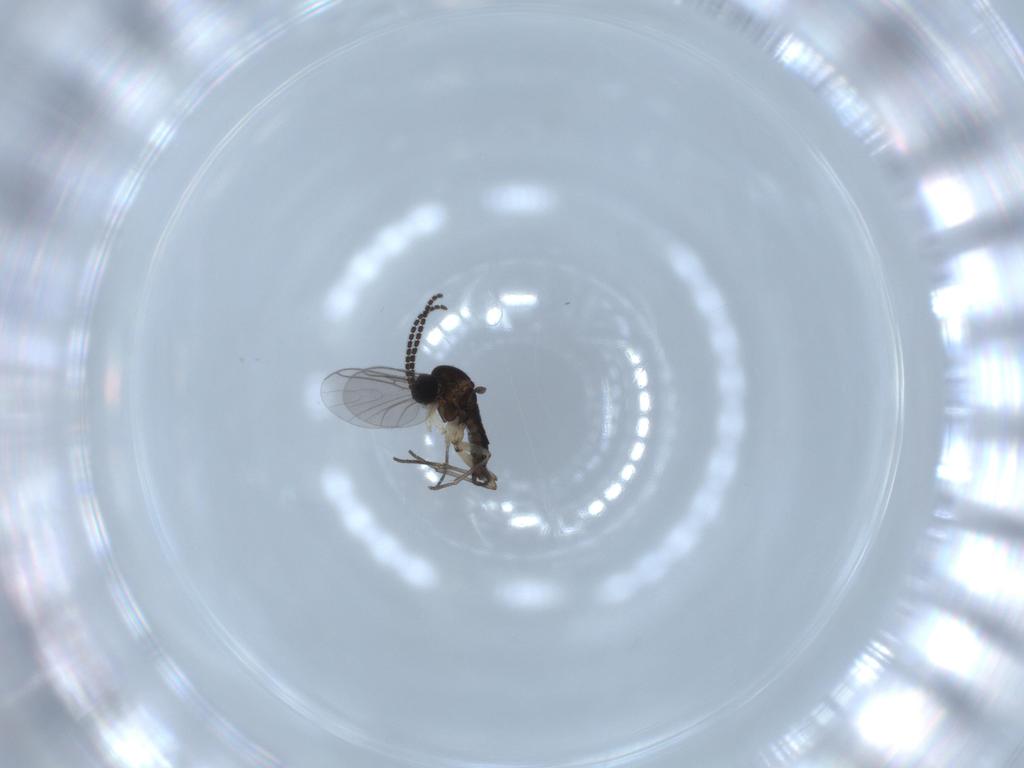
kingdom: Animalia
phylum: Arthropoda
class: Insecta
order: Diptera
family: Sciaridae
